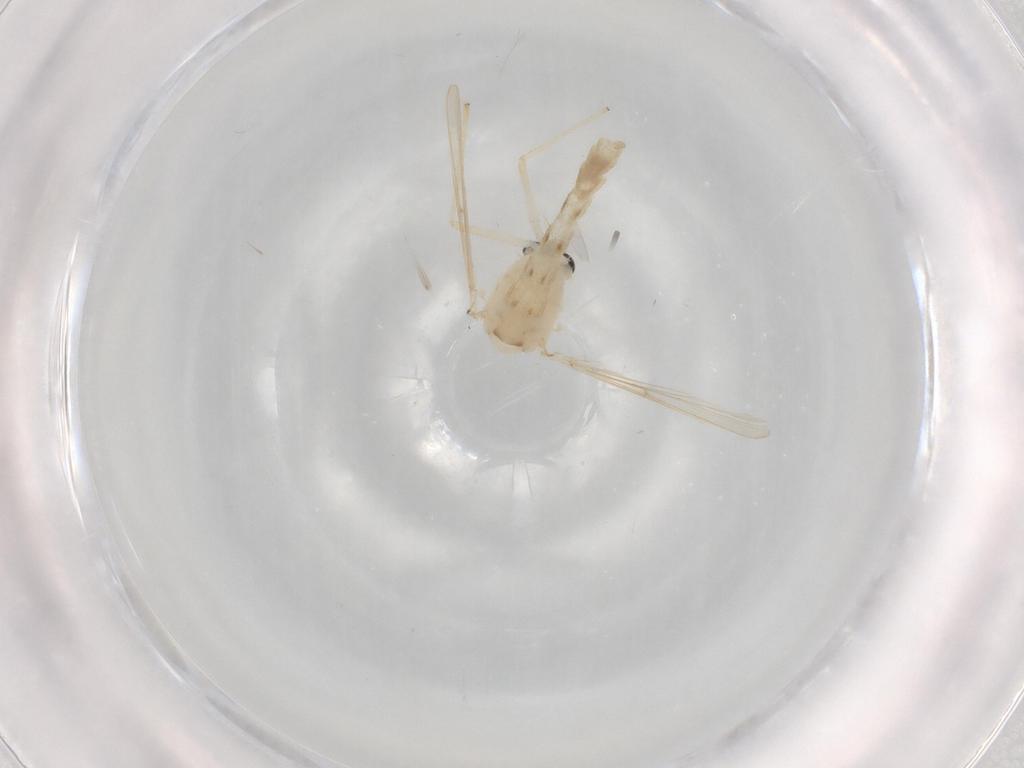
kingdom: Animalia
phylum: Arthropoda
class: Insecta
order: Diptera
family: Chironomidae
